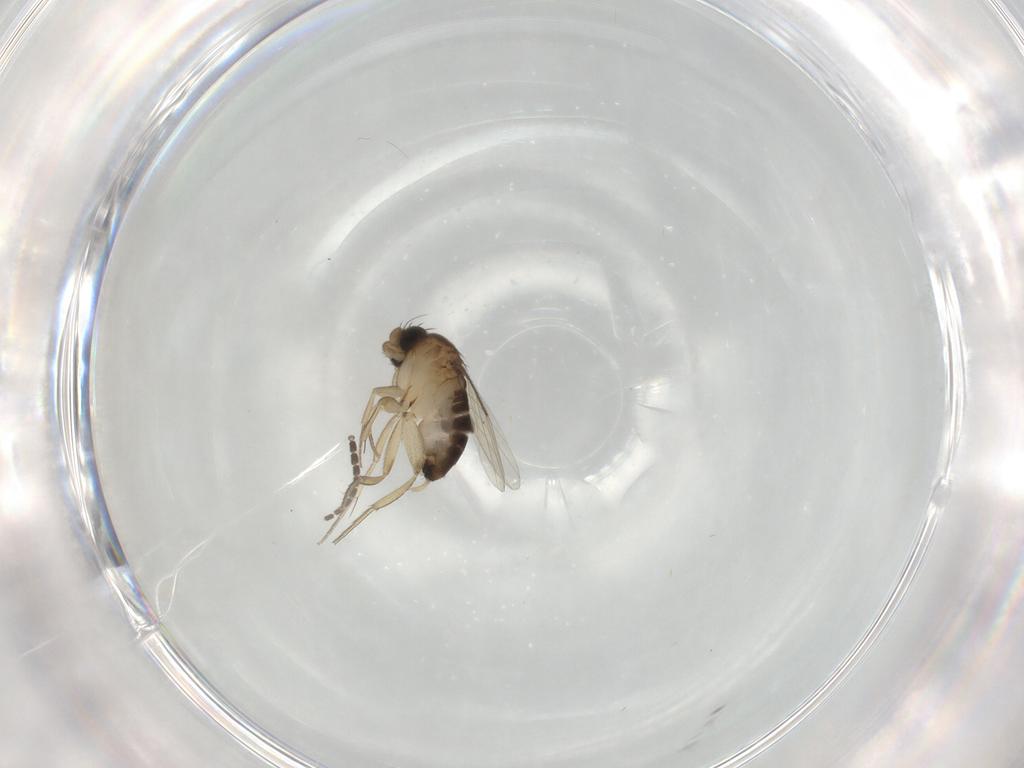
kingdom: Animalia
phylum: Arthropoda
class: Insecta
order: Diptera
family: Phoridae
